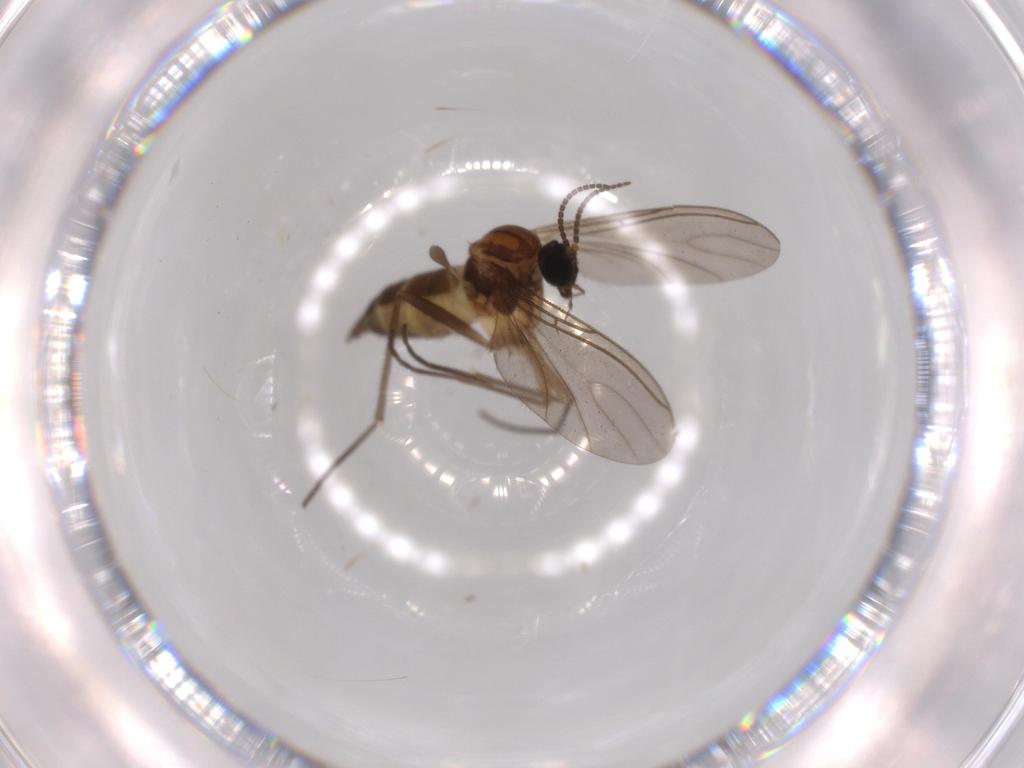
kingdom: Animalia
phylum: Arthropoda
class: Insecta
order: Diptera
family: Sciaridae
